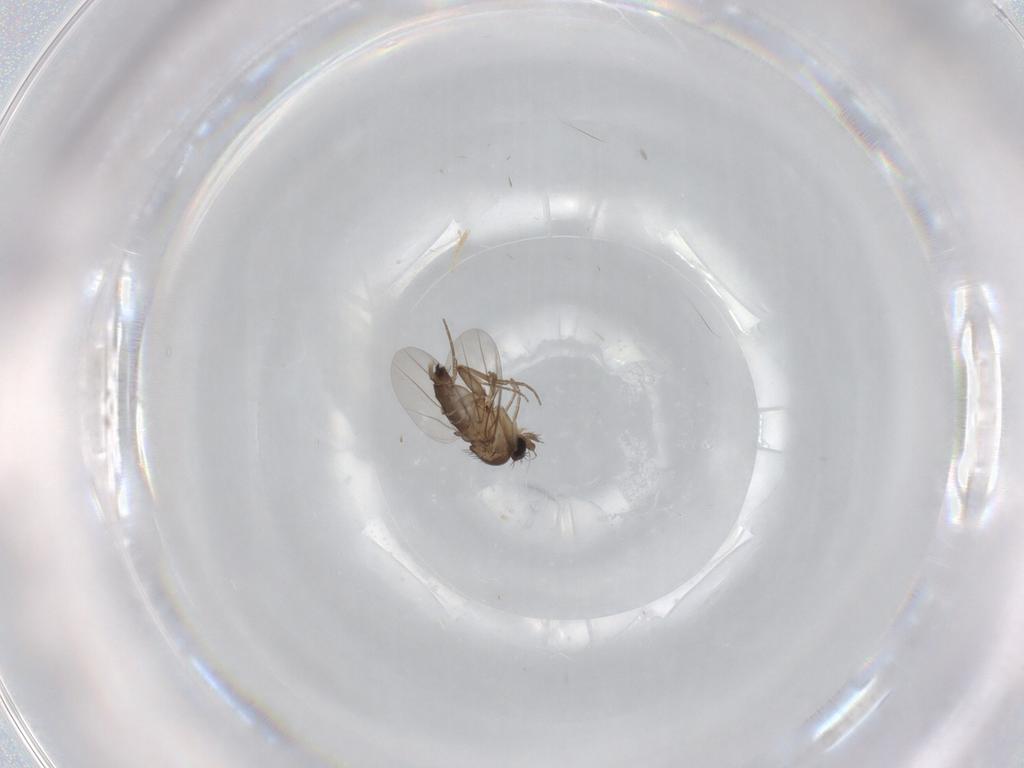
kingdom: Animalia
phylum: Arthropoda
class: Insecta
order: Diptera
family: Phoridae
